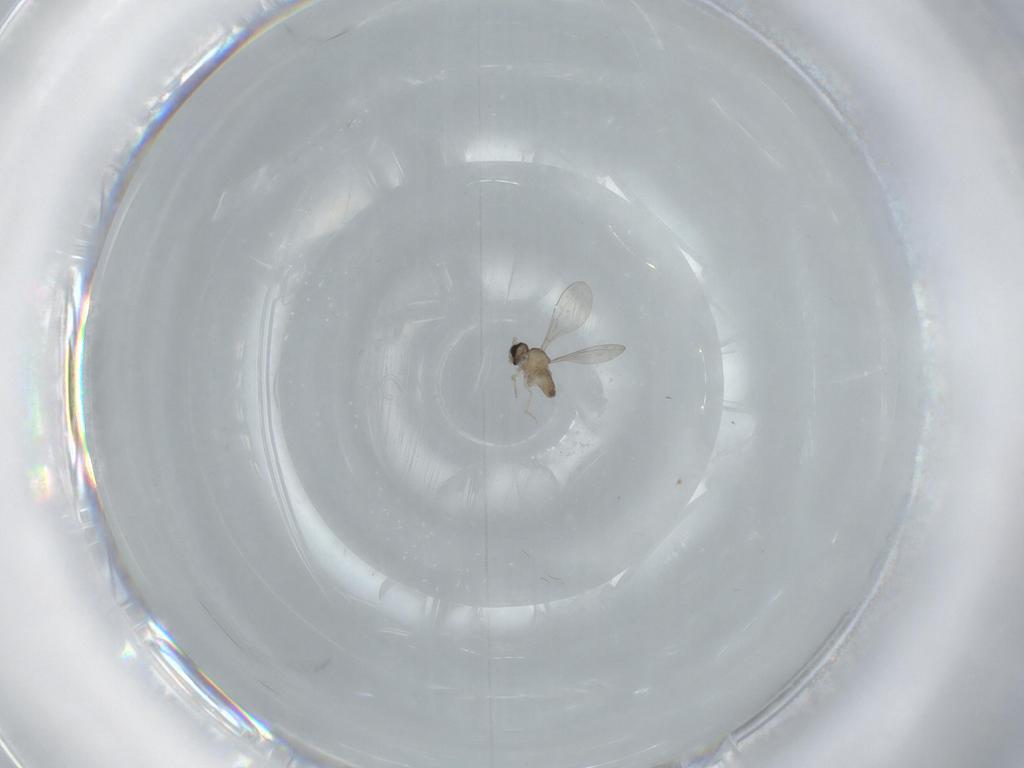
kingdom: Animalia
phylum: Arthropoda
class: Insecta
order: Diptera
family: Cecidomyiidae
